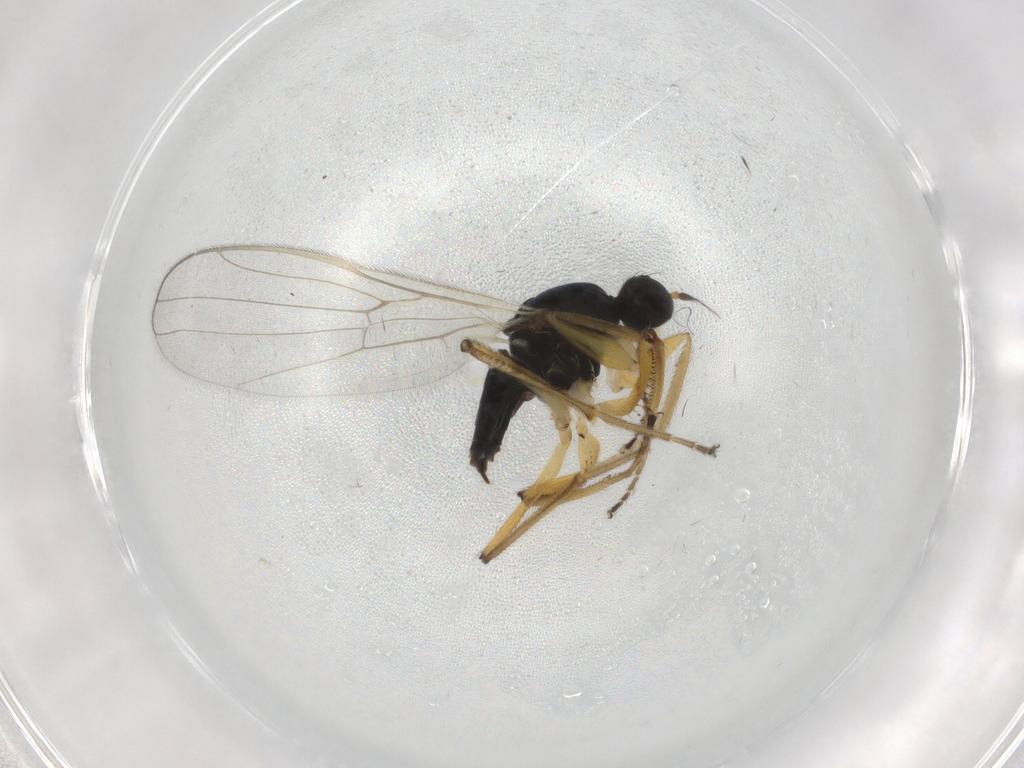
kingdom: Animalia
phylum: Arthropoda
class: Insecta
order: Diptera
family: Hybotidae
